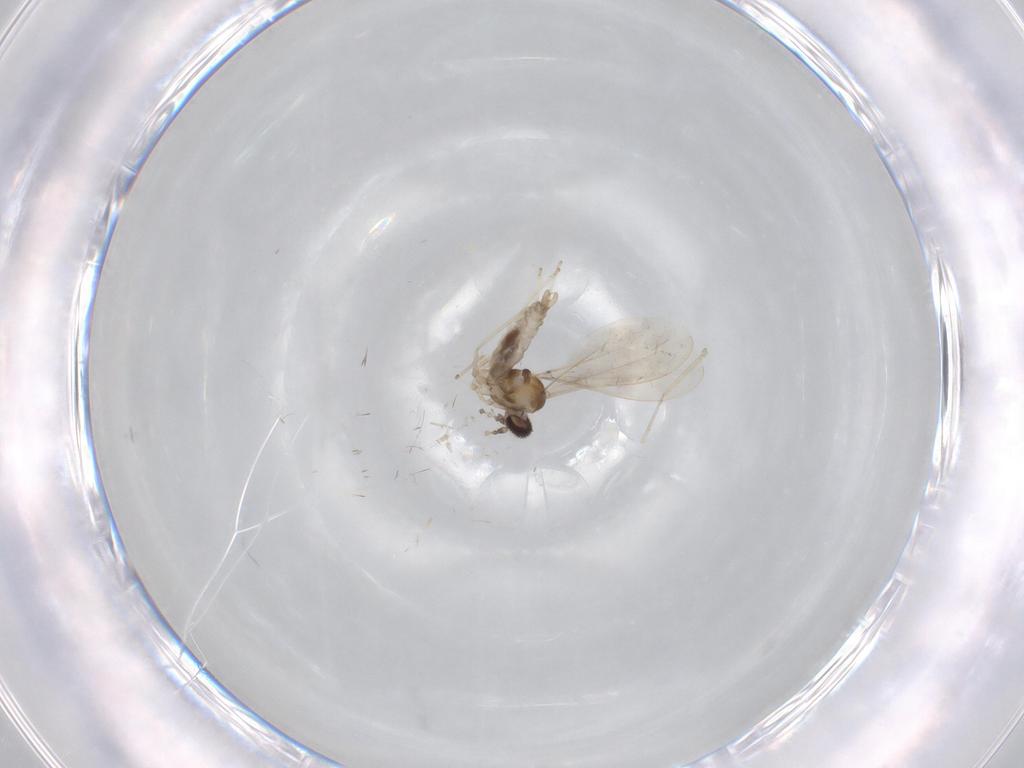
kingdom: Animalia
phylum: Arthropoda
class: Insecta
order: Diptera
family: Cecidomyiidae
